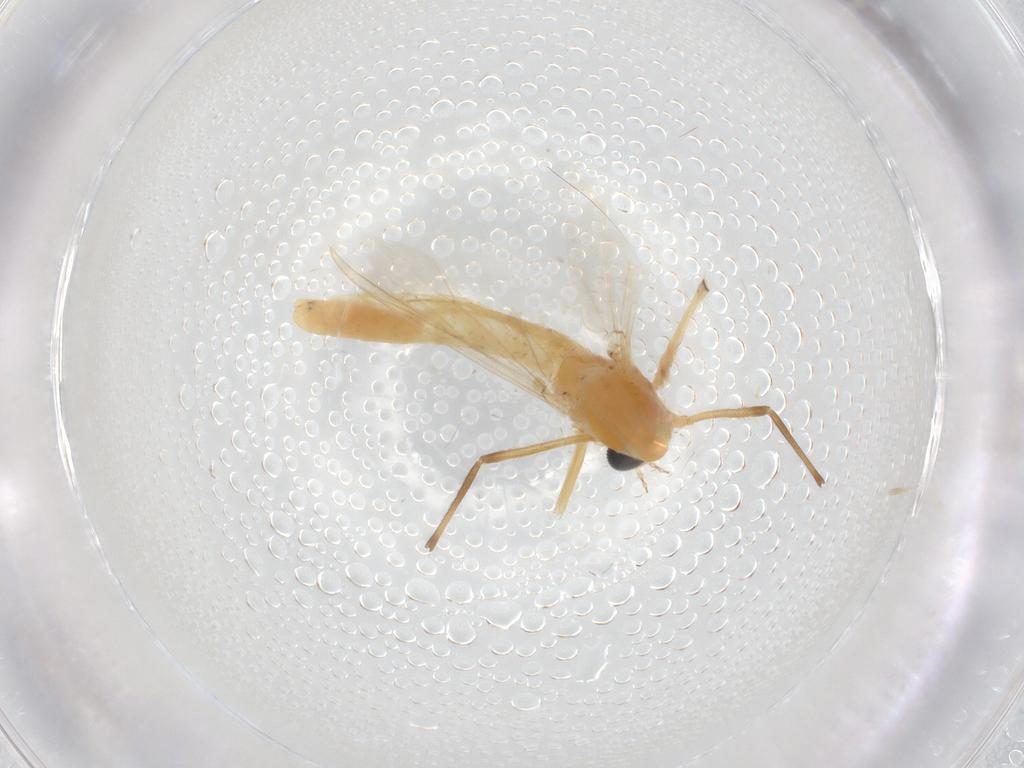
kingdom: Animalia
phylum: Arthropoda
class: Insecta
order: Diptera
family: Chironomidae
